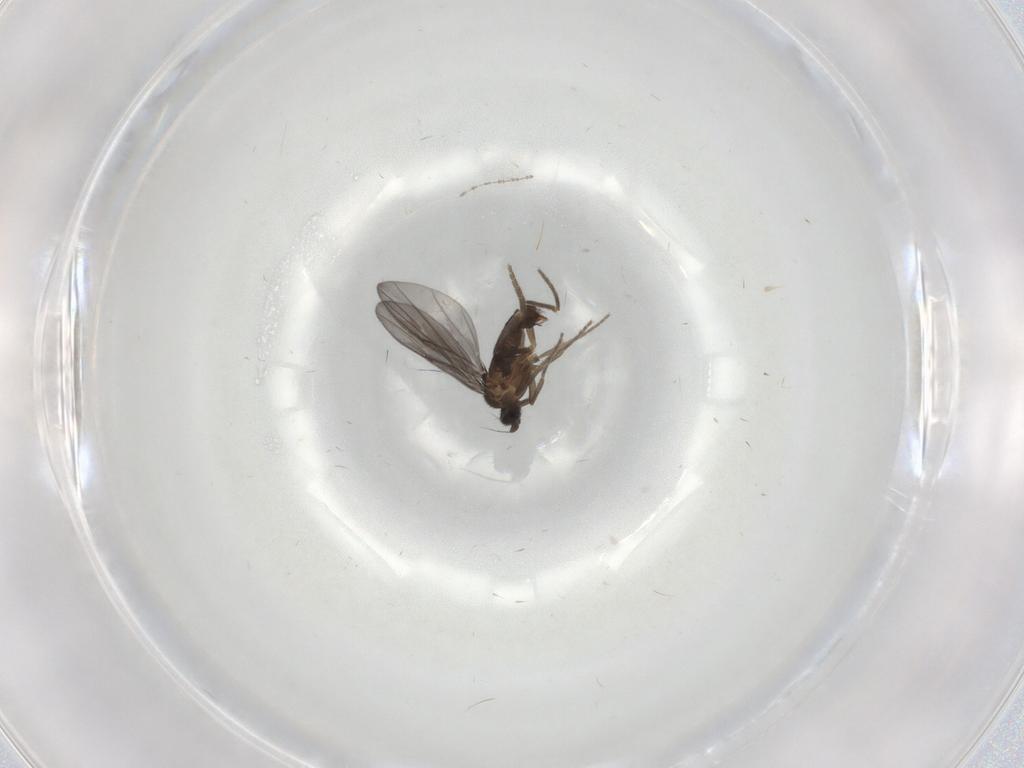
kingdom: Animalia
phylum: Arthropoda
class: Insecta
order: Diptera
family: Phoridae
